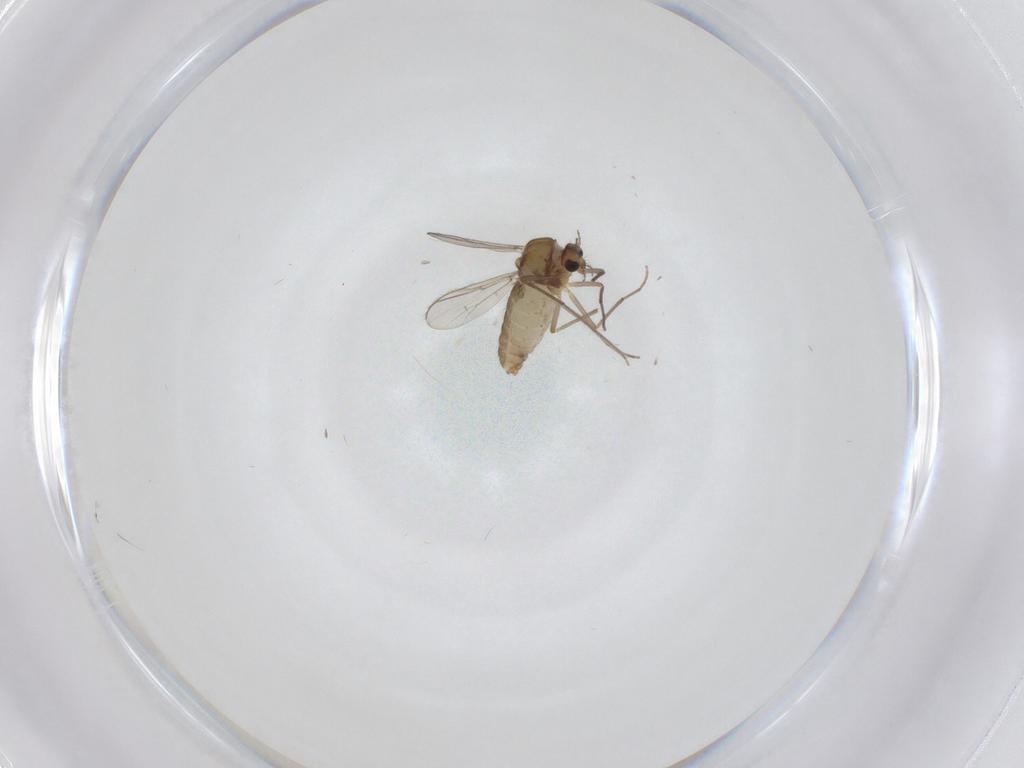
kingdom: Animalia
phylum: Arthropoda
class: Insecta
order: Diptera
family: Chironomidae
